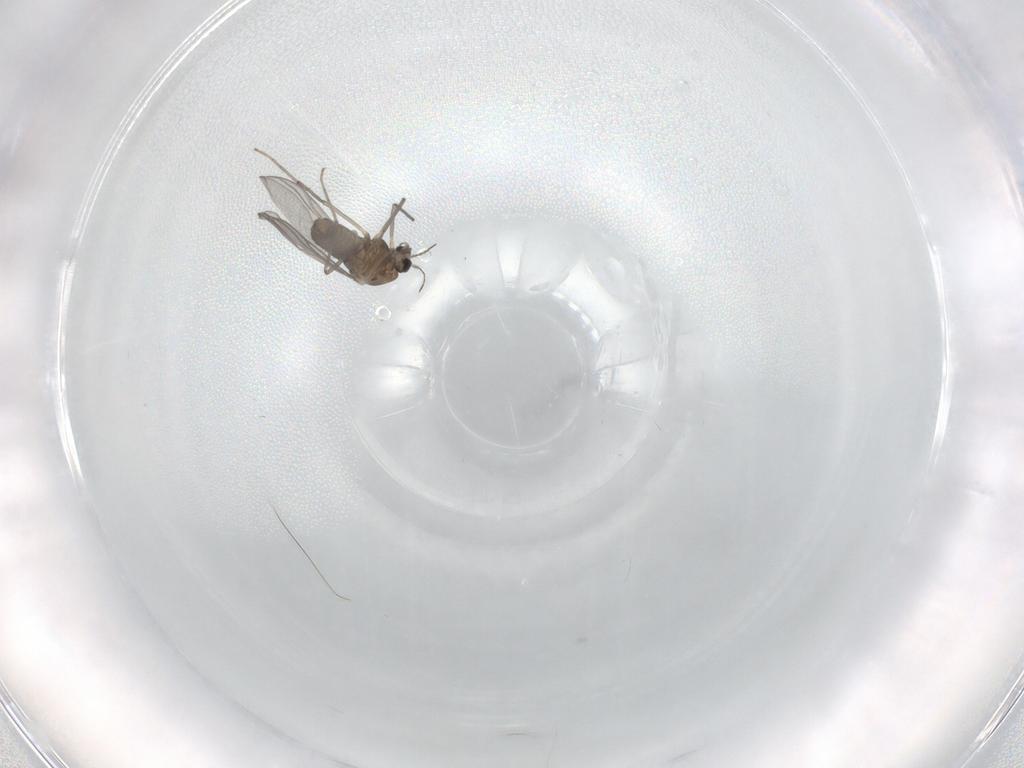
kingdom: Animalia
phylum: Arthropoda
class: Insecta
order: Diptera
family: Chironomidae
